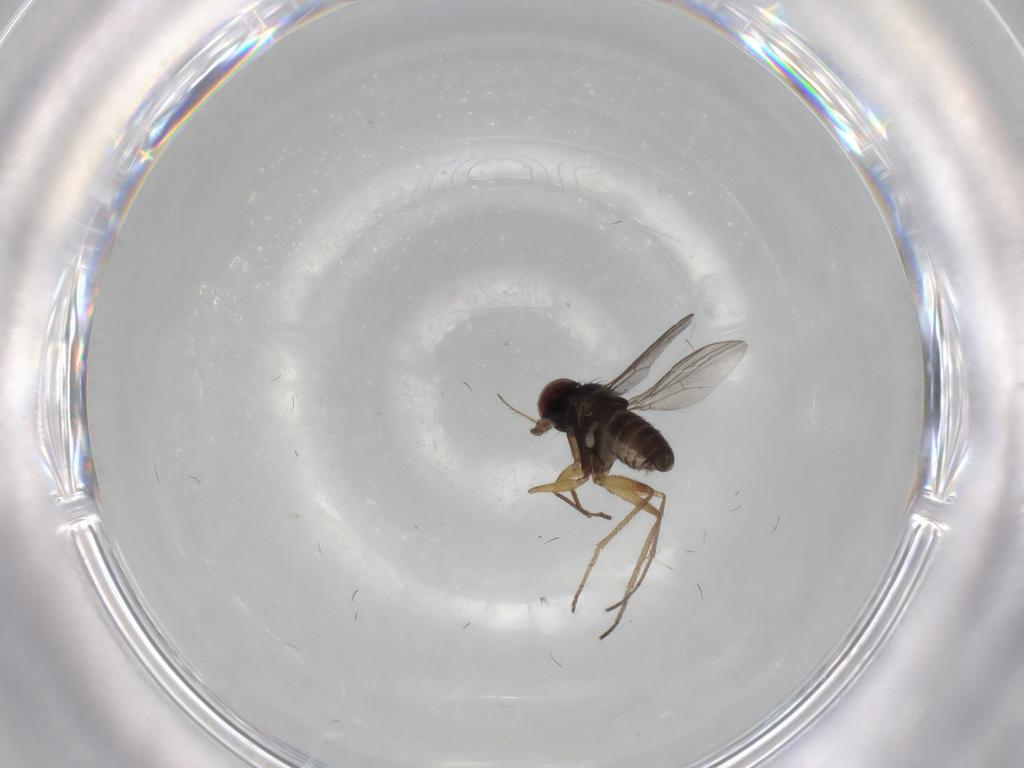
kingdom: Animalia
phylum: Arthropoda
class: Insecta
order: Diptera
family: Dolichopodidae
